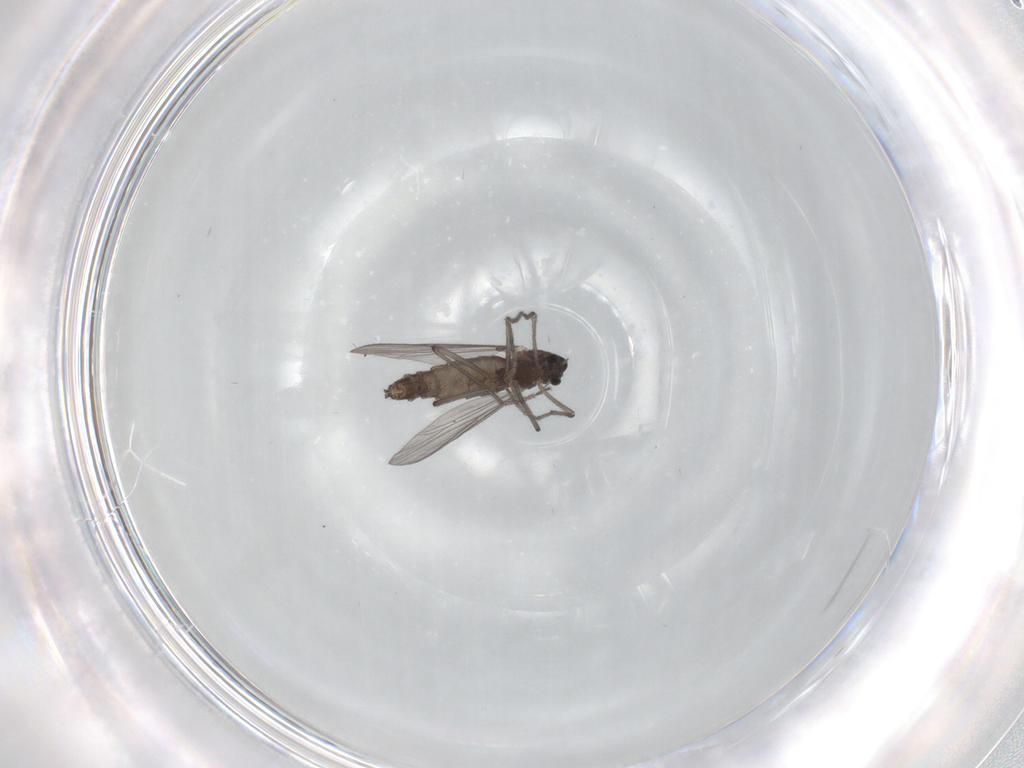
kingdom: Animalia
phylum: Arthropoda
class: Insecta
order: Diptera
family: Chironomidae
